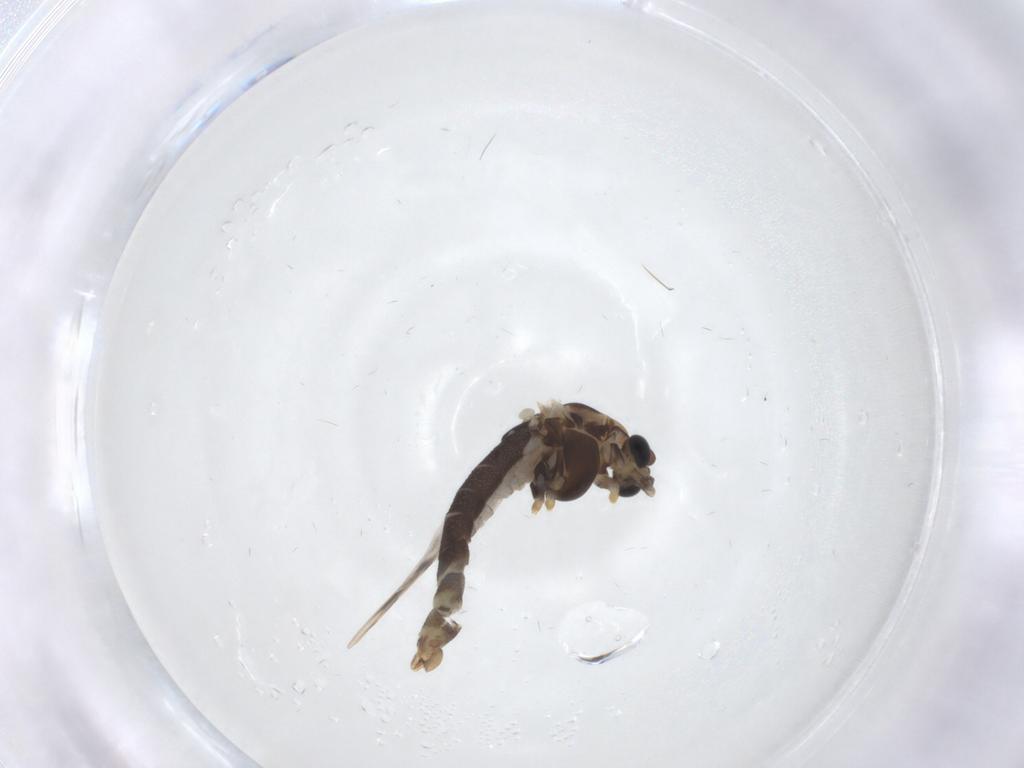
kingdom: Animalia
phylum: Arthropoda
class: Insecta
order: Diptera
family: Chironomidae
